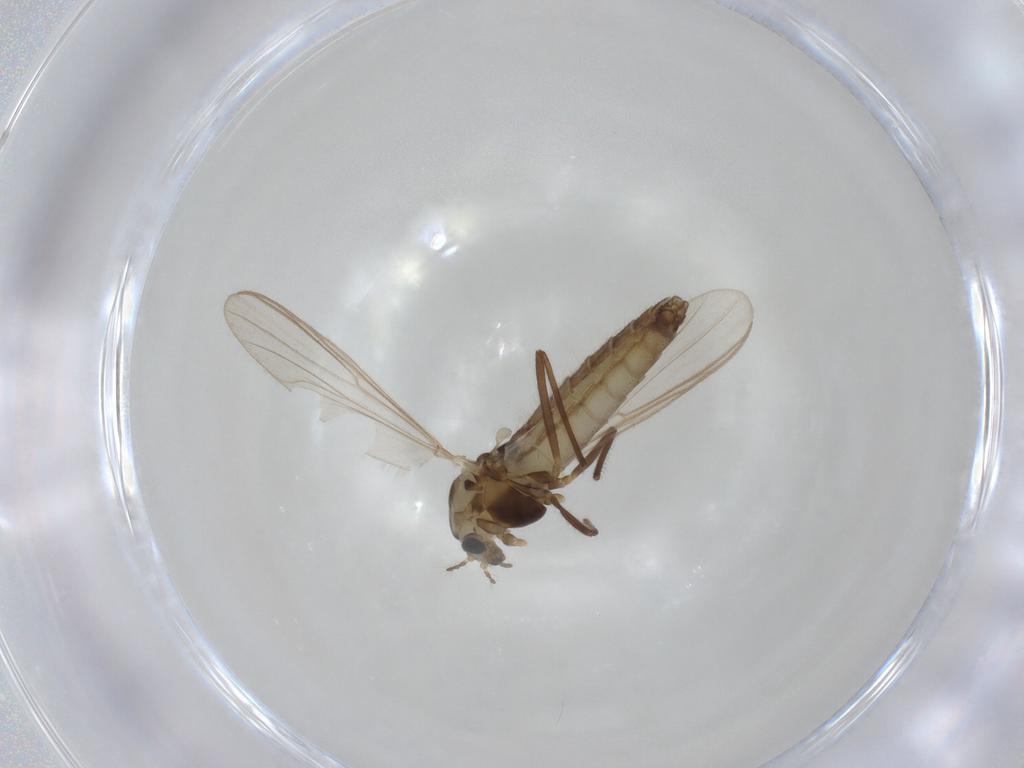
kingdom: Animalia
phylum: Arthropoda
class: Insecta
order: Diptera
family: Chironomidae
